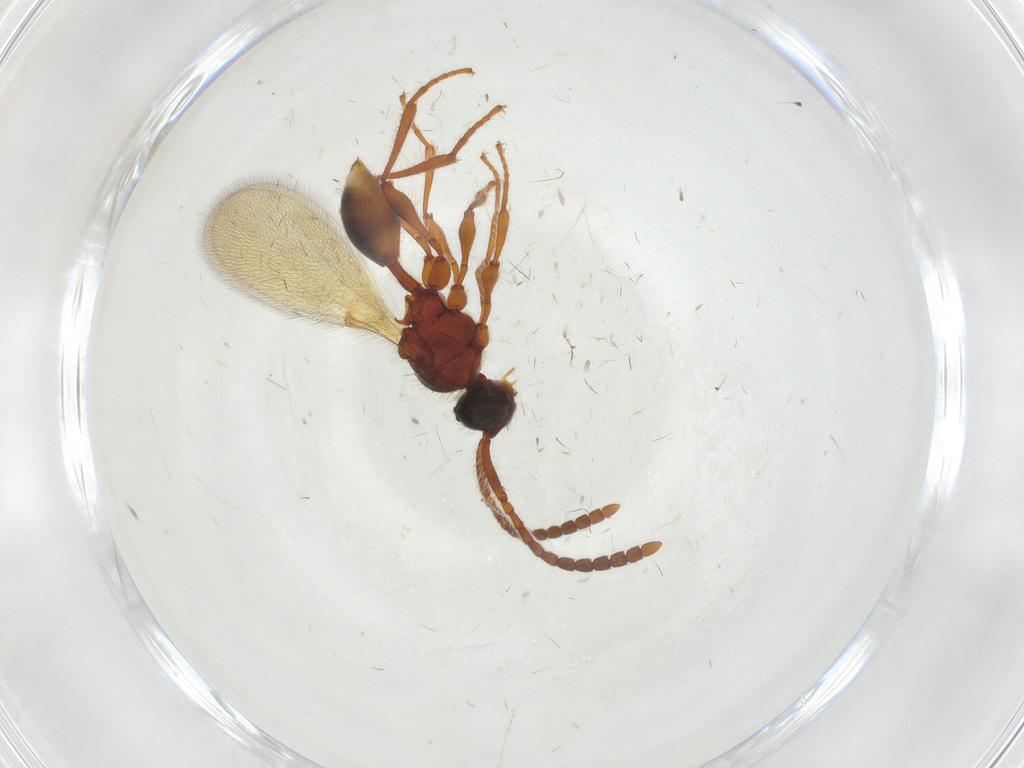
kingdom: Animalia
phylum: Arthropoda
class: Insecta
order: Hymenoptera
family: Diapriidae
